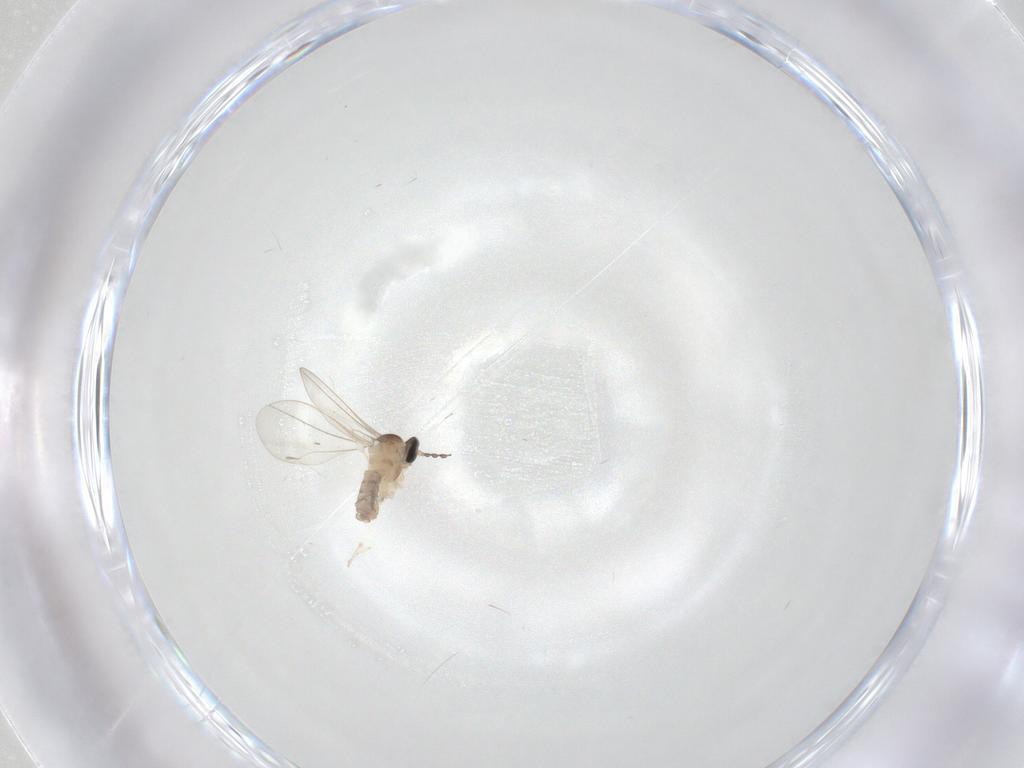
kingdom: Animalia
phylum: Arthropoda
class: Insecta
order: Diptera
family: Cecidomyiidae
